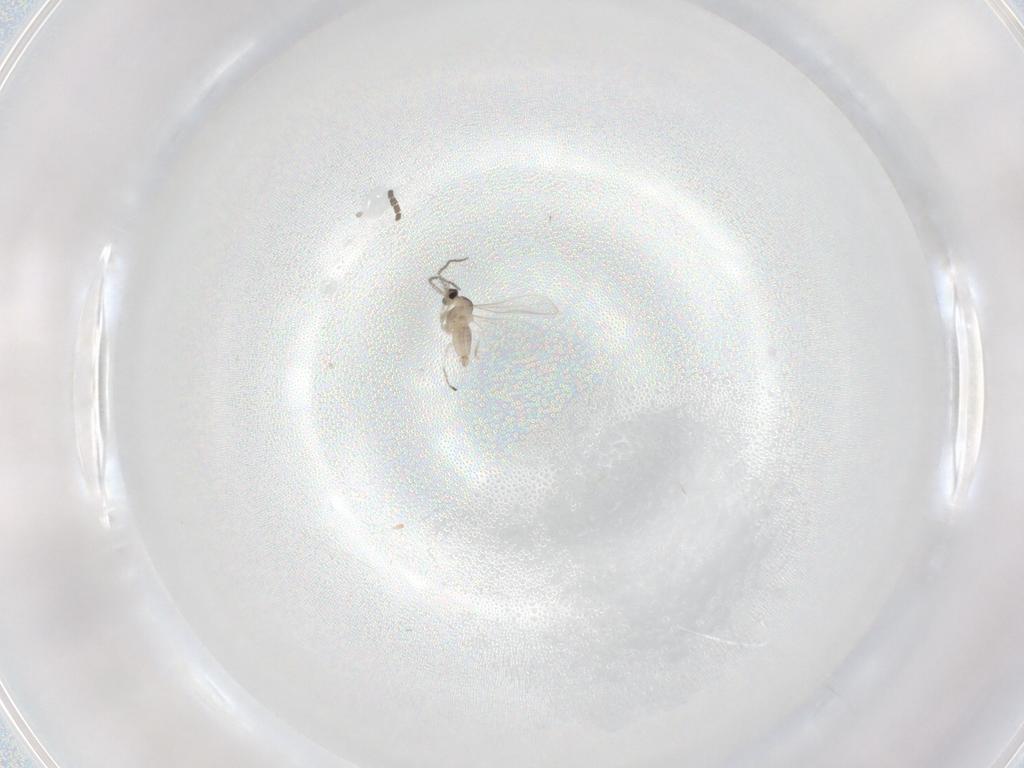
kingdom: Animalia
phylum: Arthropoda
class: Insecta
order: Diptera
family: Cecidomyiidae
